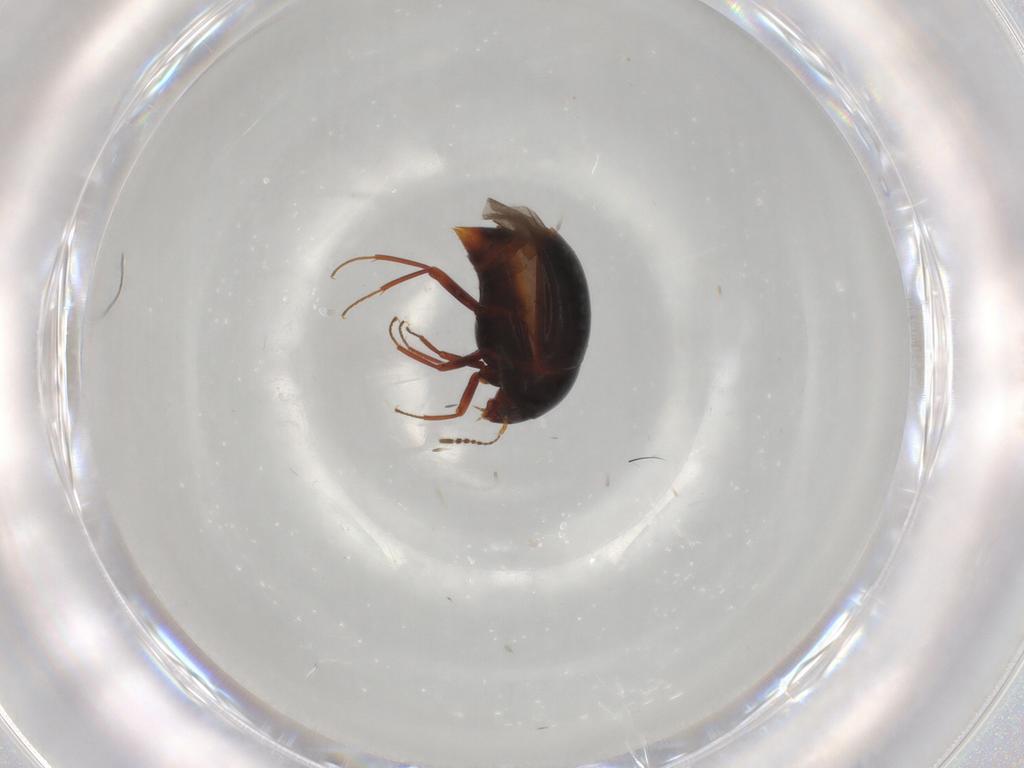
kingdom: Animalia
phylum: Arthropoda
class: Insecta
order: Coleoptera
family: Staphylinidae
